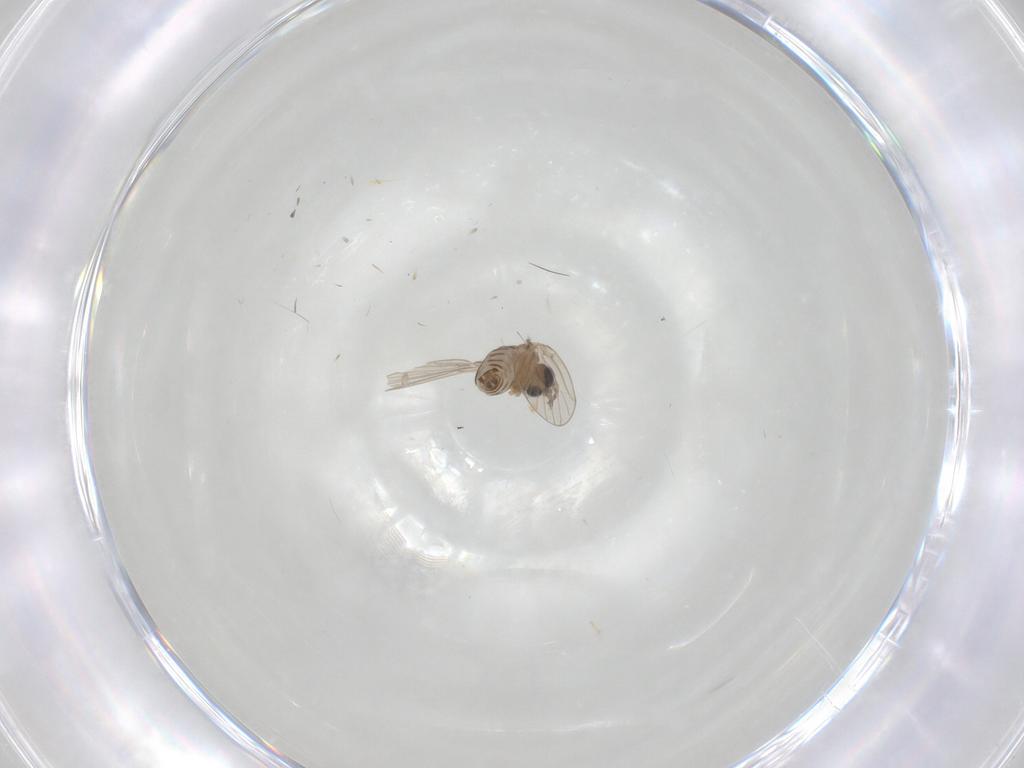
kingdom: Animalia
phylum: Arthropoda
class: Insecta
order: Diptera
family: Psychodidae
